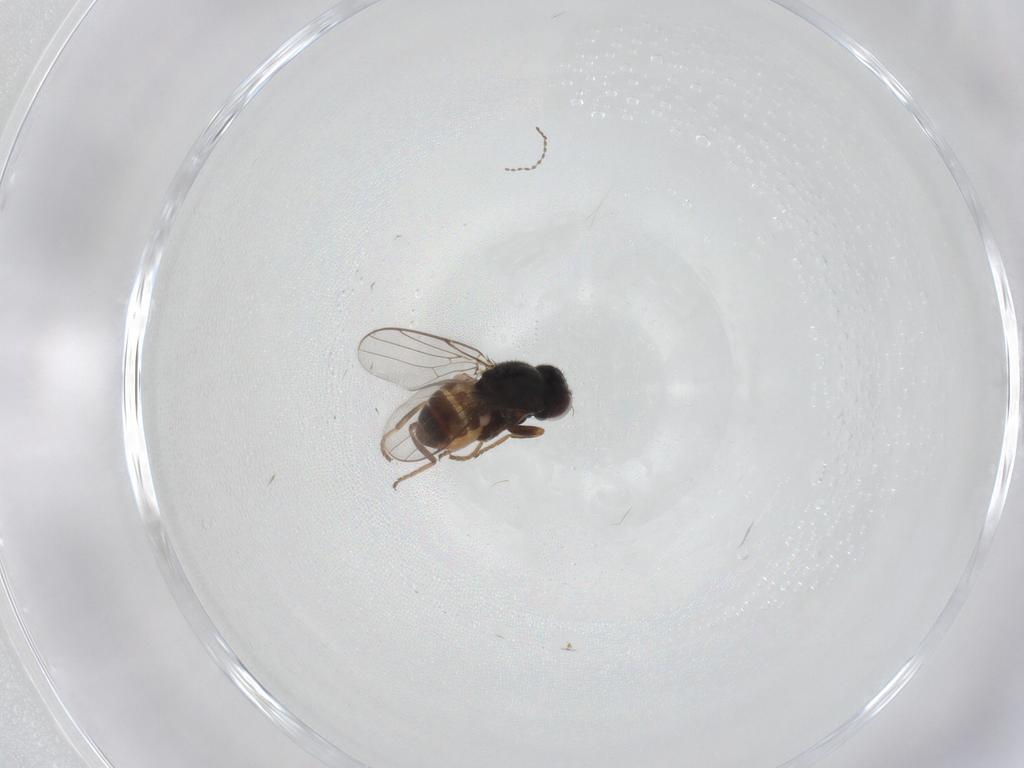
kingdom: Animalia
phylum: Arthropoda
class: Insecta
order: Diptera
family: Chloropidae
